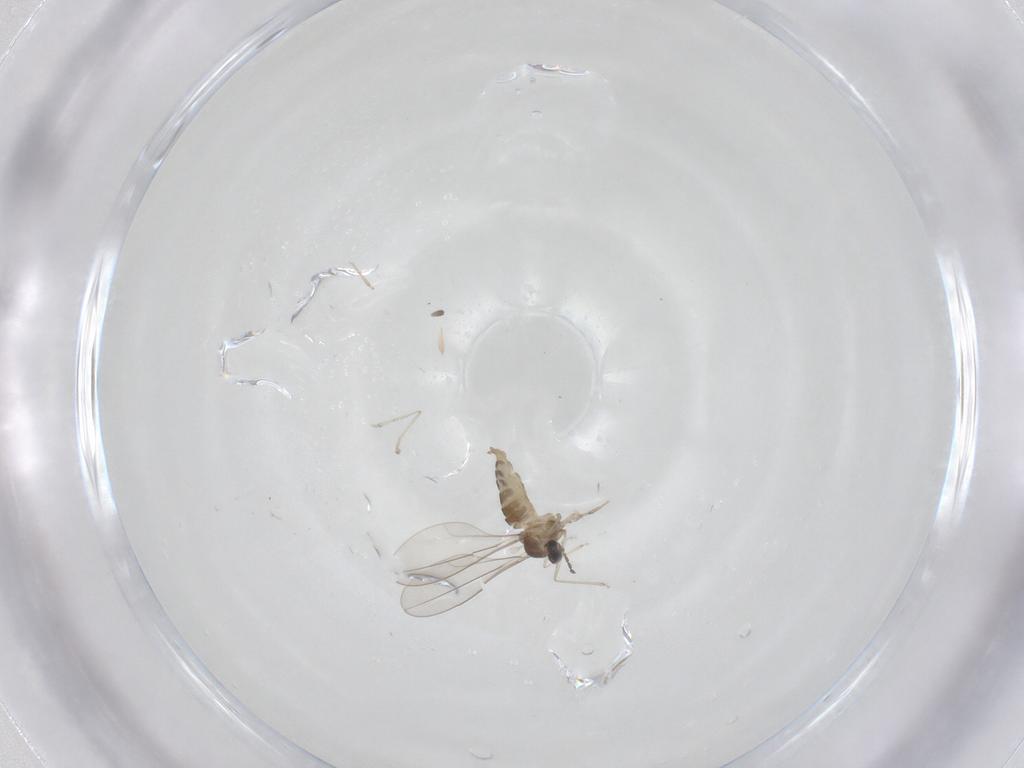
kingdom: Animalia
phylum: Arthropoda
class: Insecta
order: Diptera
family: Cecidomyiidae
